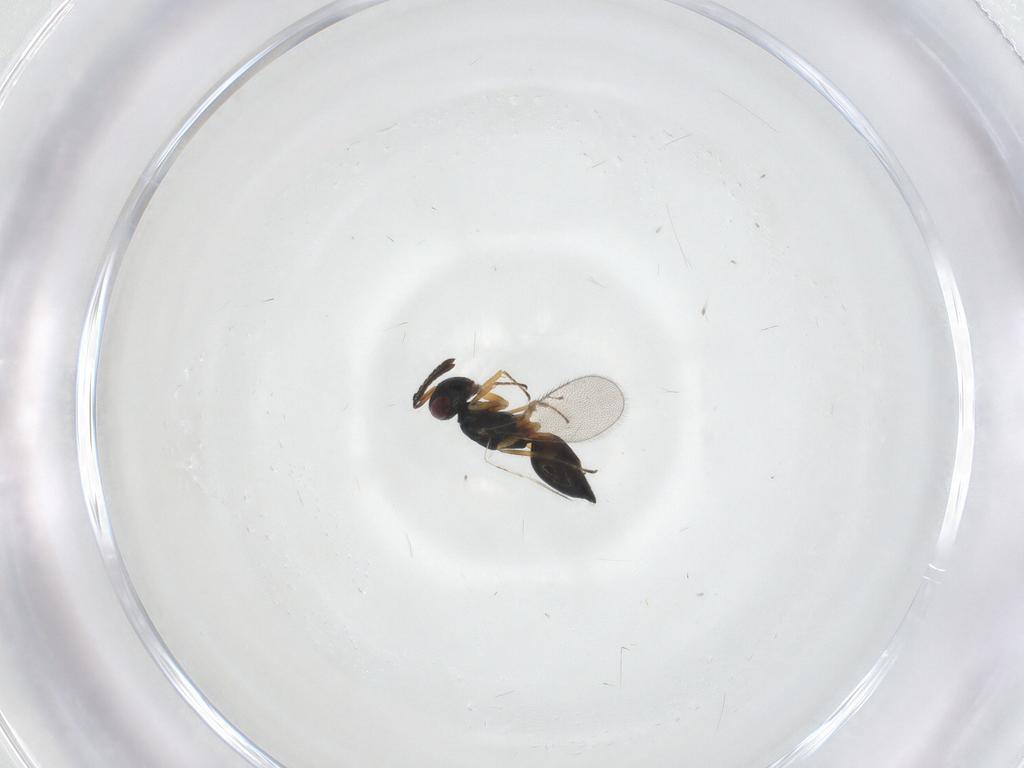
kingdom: Animalia
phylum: Arthropoda
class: Insecta
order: Hymenoptera
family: Pteromalidae
